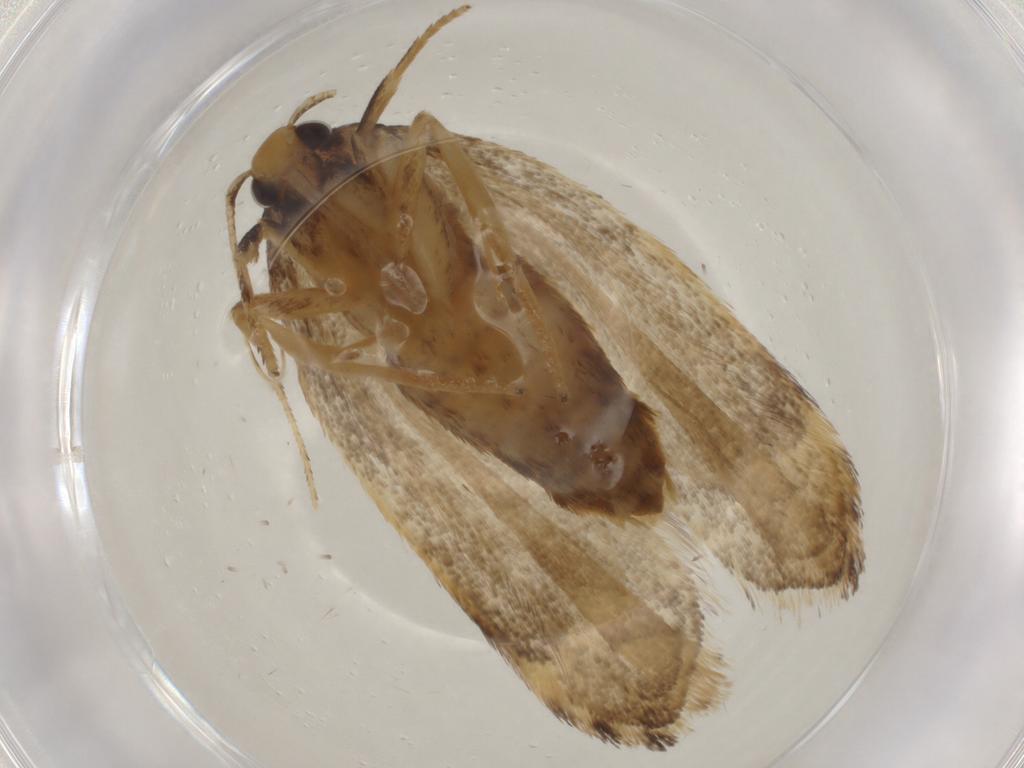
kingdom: Animalia
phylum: Arthropoda
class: Insecta
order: Lepidoptera
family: Lecithoceridae
